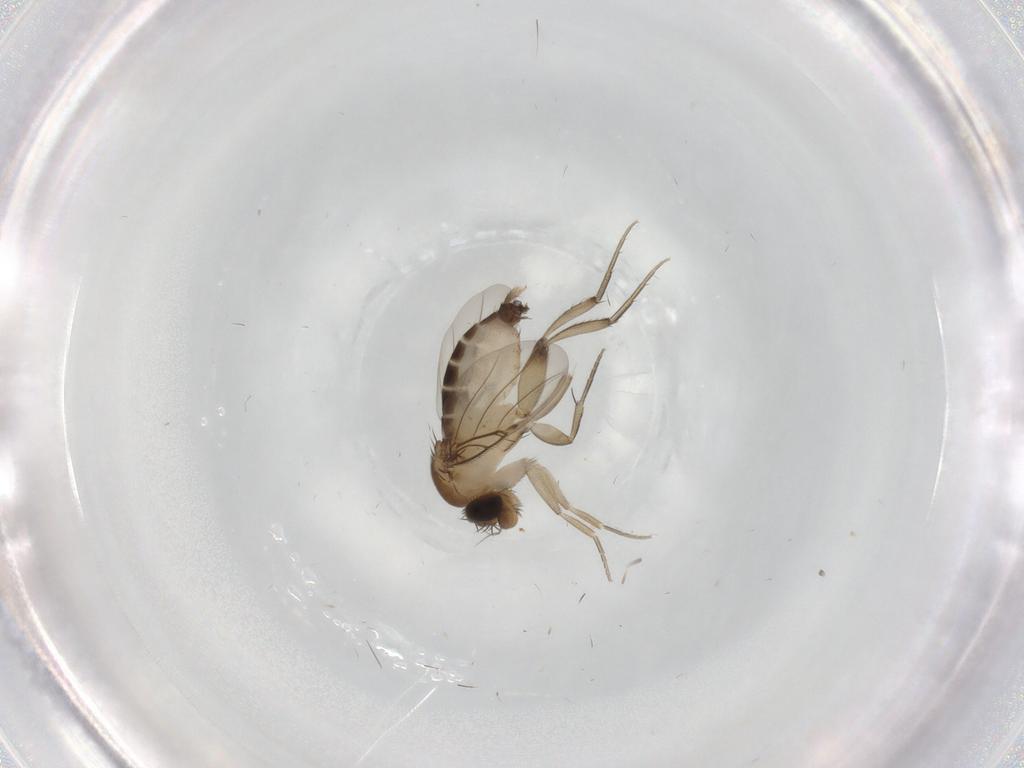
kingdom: Animalia
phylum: Arthropoda
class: Insecta
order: Diptera
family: Phoridae
